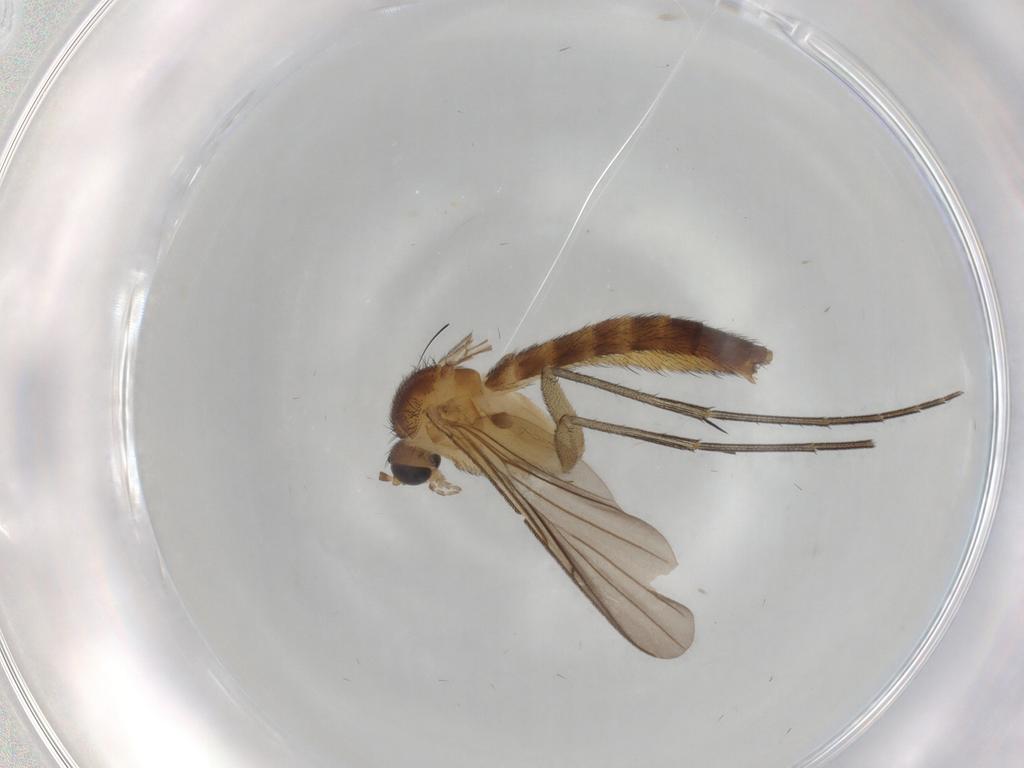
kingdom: Animalia
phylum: Arthropoda
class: Insecta
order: Diptera
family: Keroplatidae
